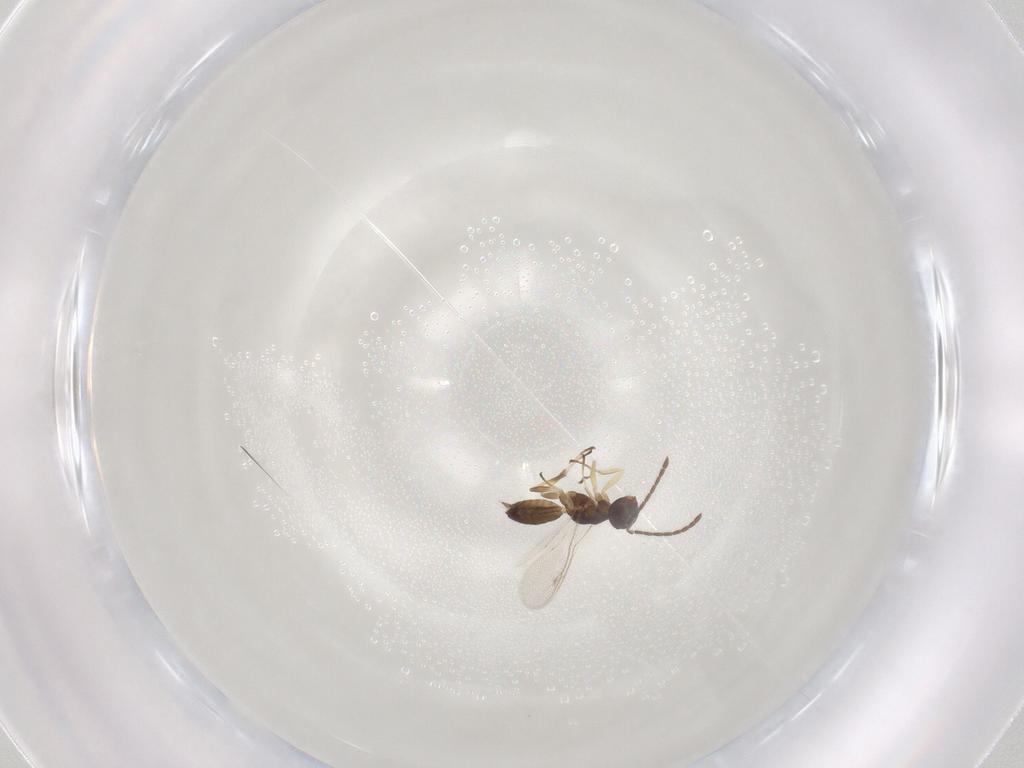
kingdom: Animalia
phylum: Arthropoda
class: Insecta
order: Hymenoptera
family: Eupelmidae
